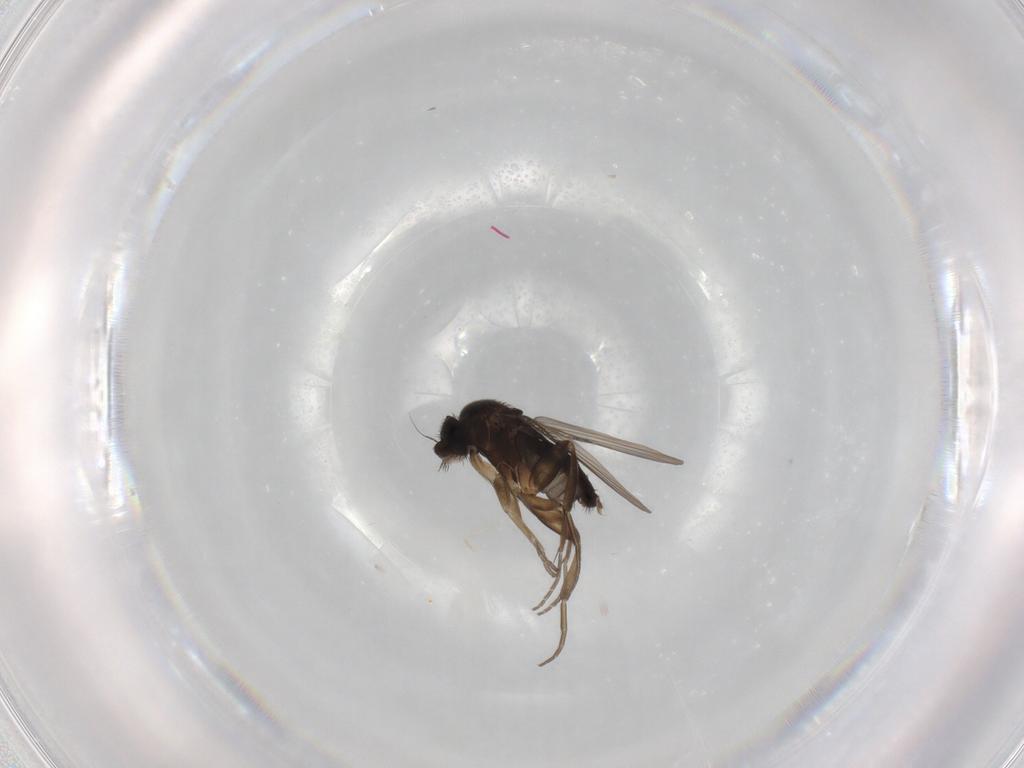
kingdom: Animalia
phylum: Arthropoda
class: Insecta
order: Diptera
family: Phoridae
